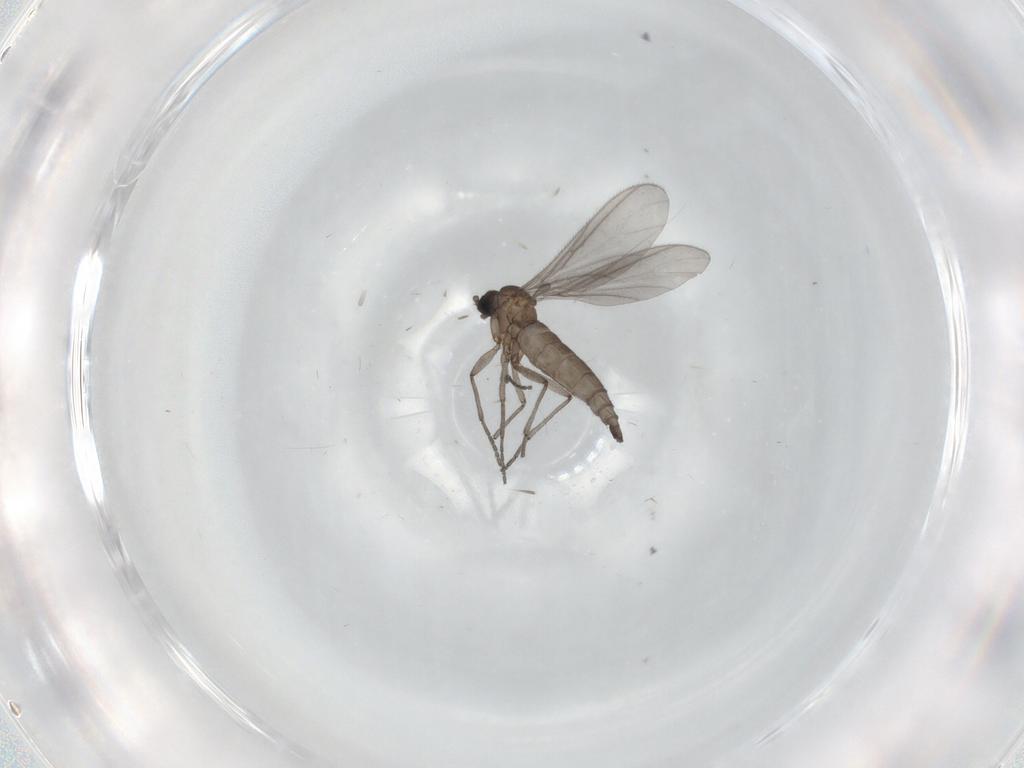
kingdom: Animalia
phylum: Arthropoda
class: Insecta
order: Diptera
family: Sciaridae
